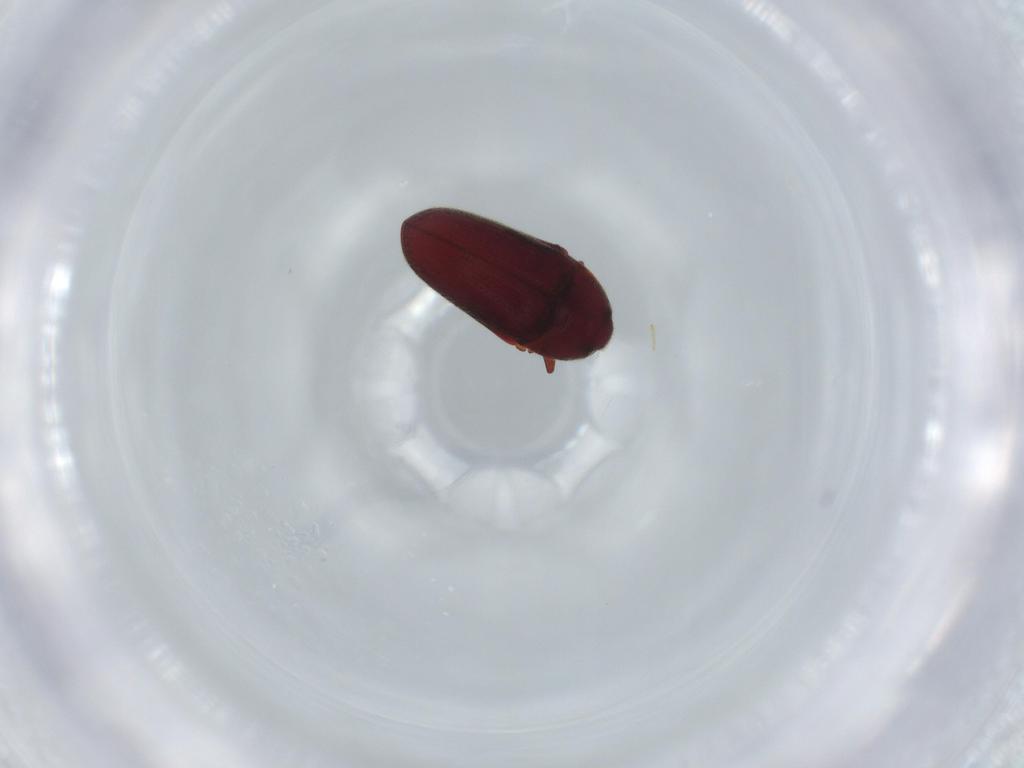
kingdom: Animalia
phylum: Arthropoda
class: Insecta
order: Coleoptera
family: Throscidae
